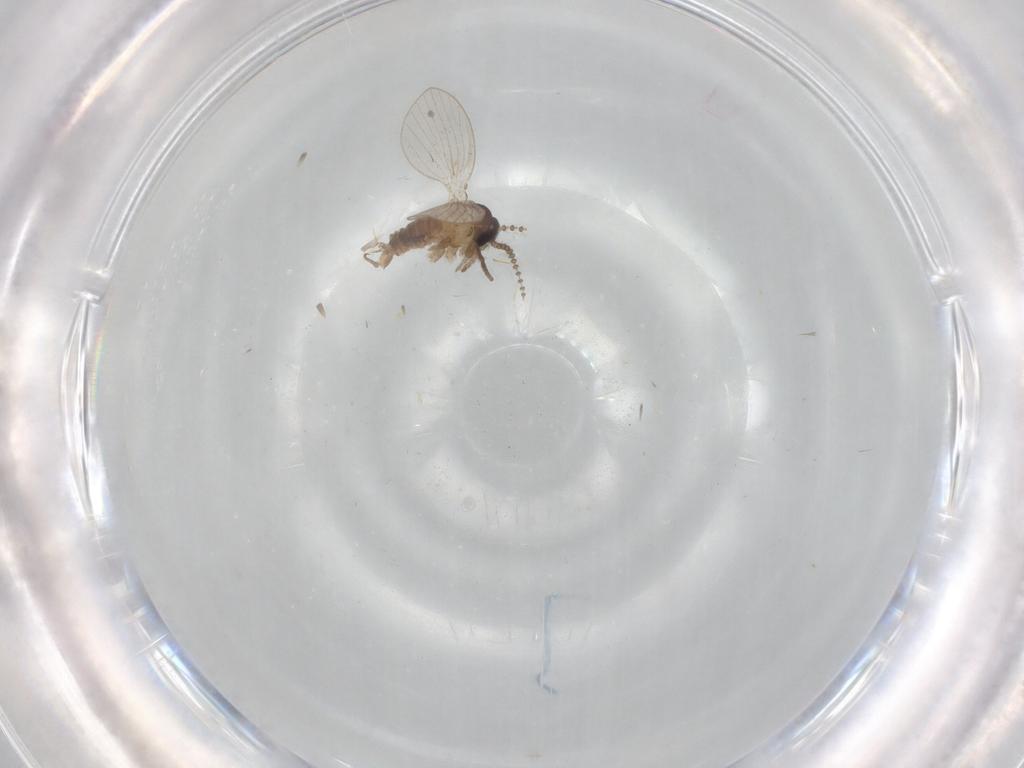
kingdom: Animalia
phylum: Arthropoda
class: Insecta
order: Diptera
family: Psychodidae
